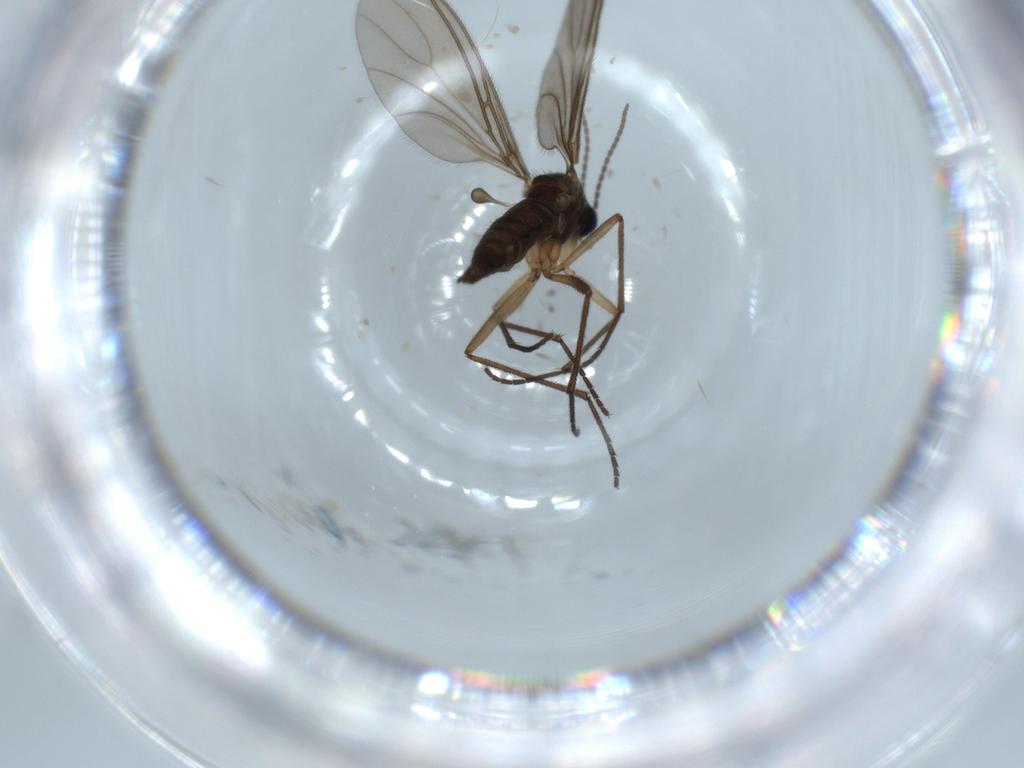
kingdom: Animalia
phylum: Arthropoda
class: Insecta
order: Diptera
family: Sciaridae
